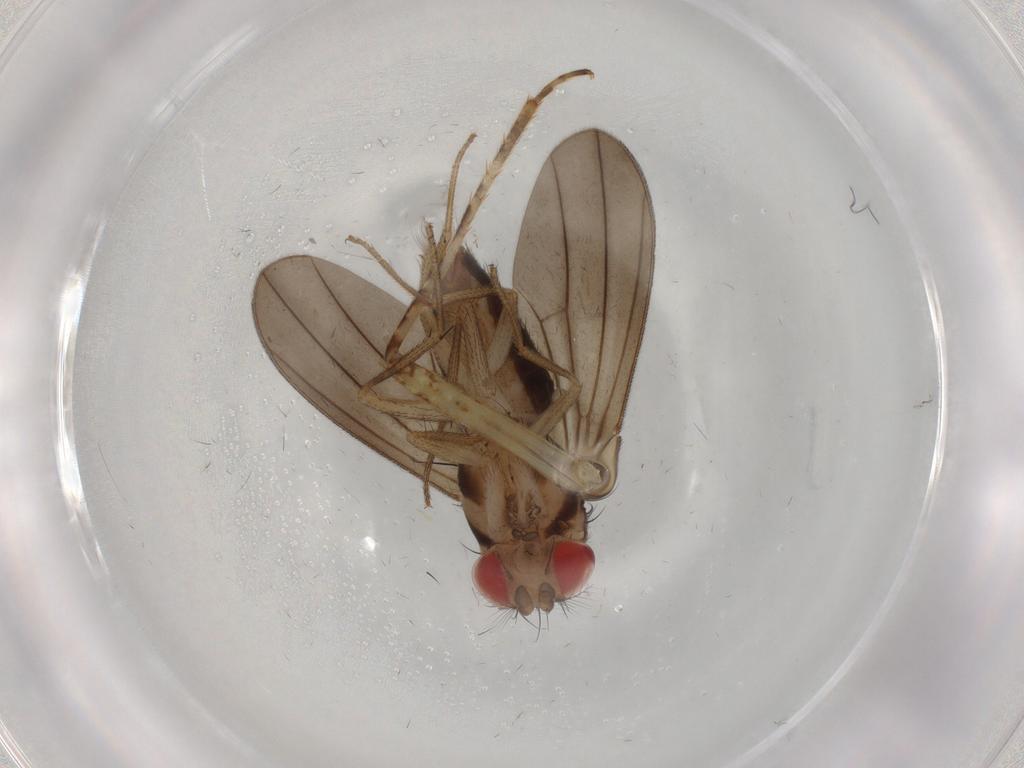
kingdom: Animalia
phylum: Arthropoda
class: Insecta
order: Diptera
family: Drosophilidae
